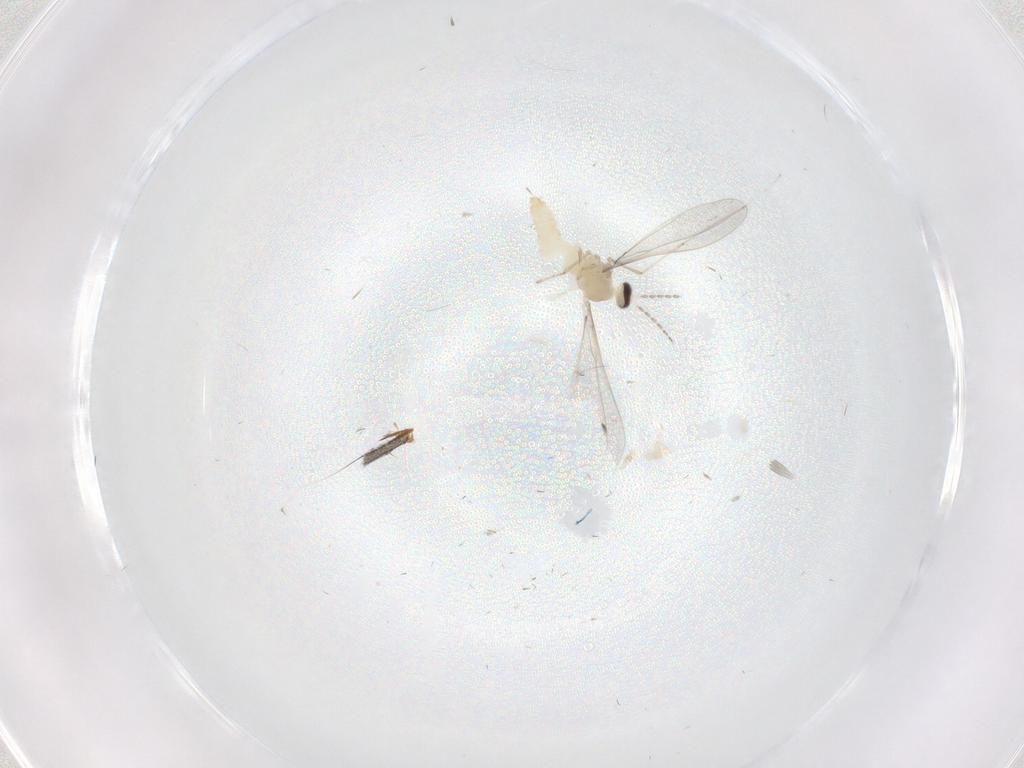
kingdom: Animalia
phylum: Arthropoda
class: Insecta
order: Diptera
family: Cecidomyiidae
